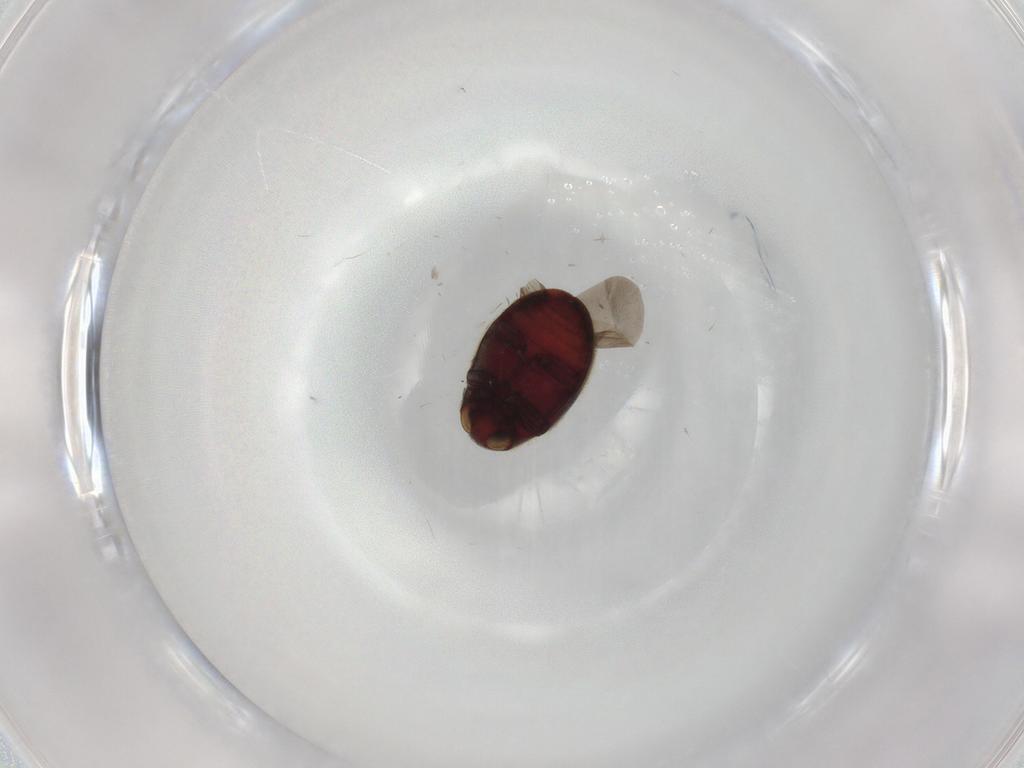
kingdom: Animalia
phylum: Arthropoda
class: Insecta
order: Coleoptera
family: Ptinidae
